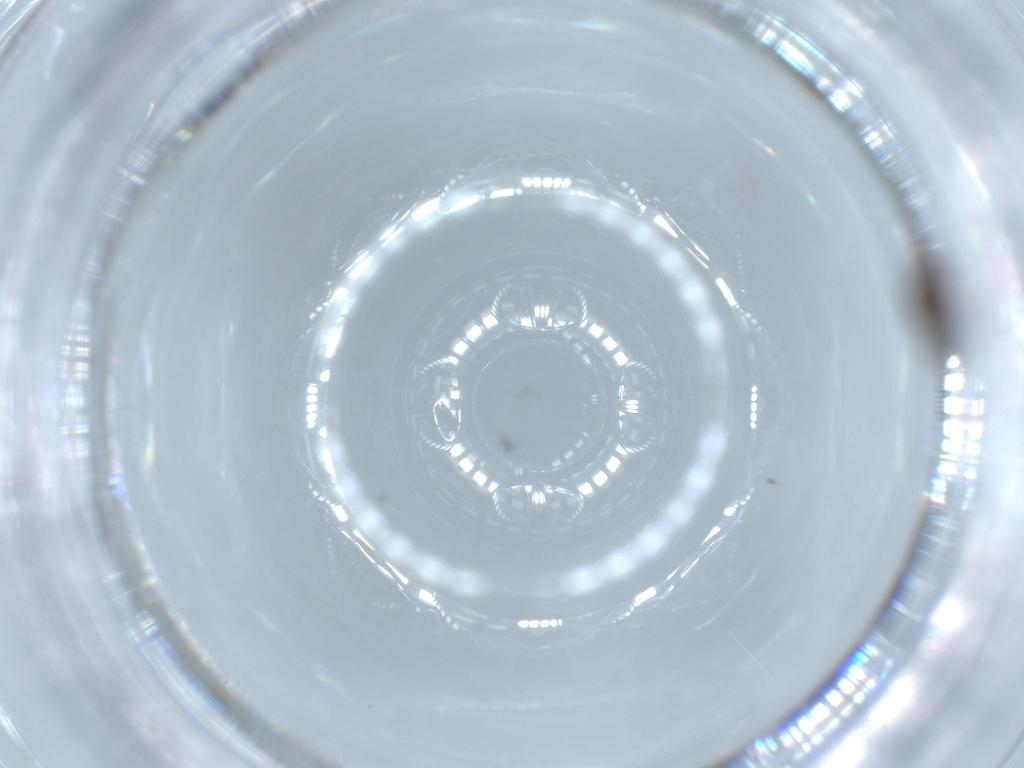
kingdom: Animalia
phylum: Arthropoda
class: Insecta
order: Diptera
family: Psychodidae
